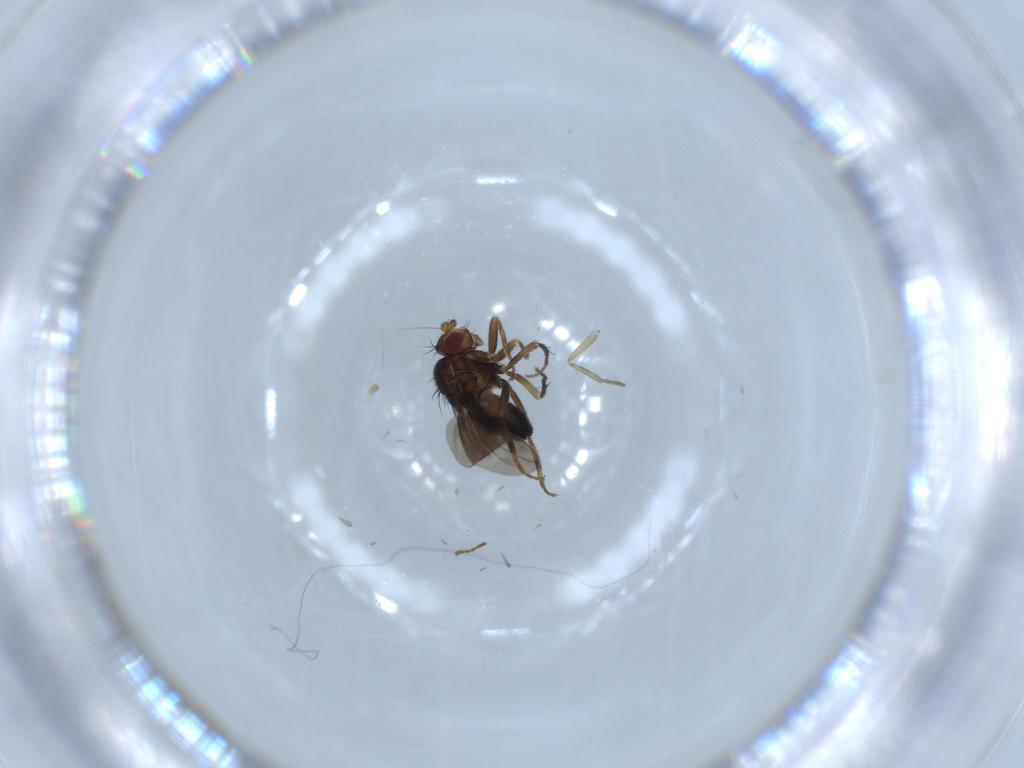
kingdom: Animalia
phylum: Arthropoda
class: Insecta
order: Diptera
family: Sphaeroceridae
